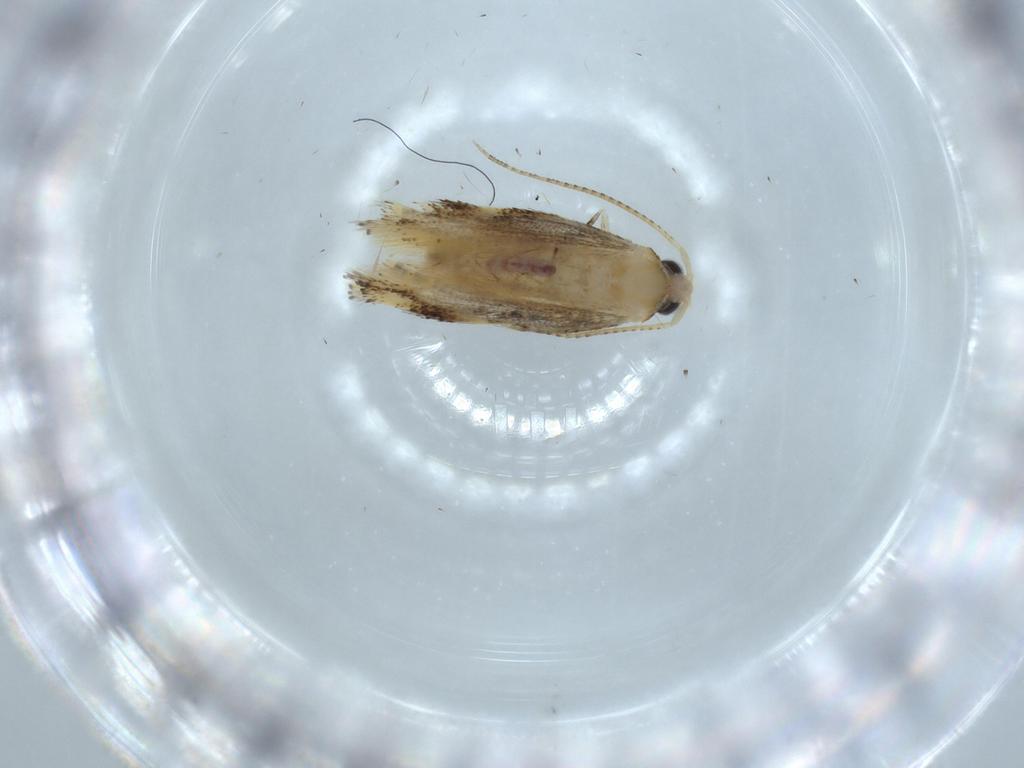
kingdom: Animalia
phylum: Arthropoda
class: Insecta
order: Lepidoptera
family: Bucculatricidae
